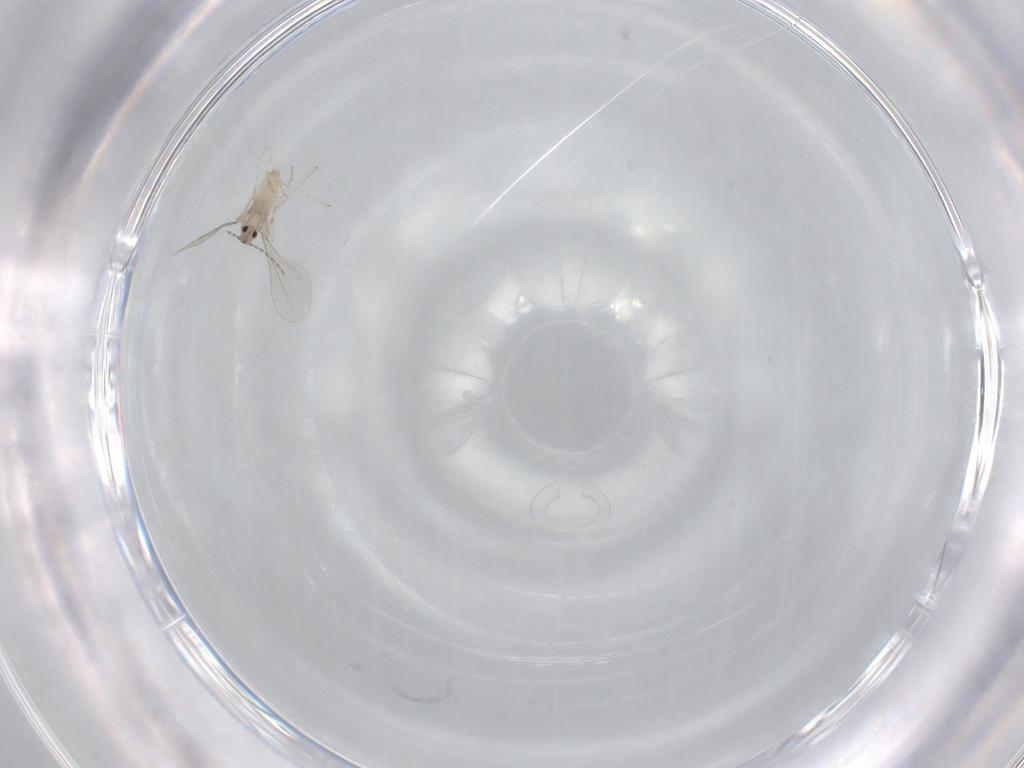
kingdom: Animalia
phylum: Arthropoda
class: Insecta
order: Diptera
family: Cecidomyiidae
